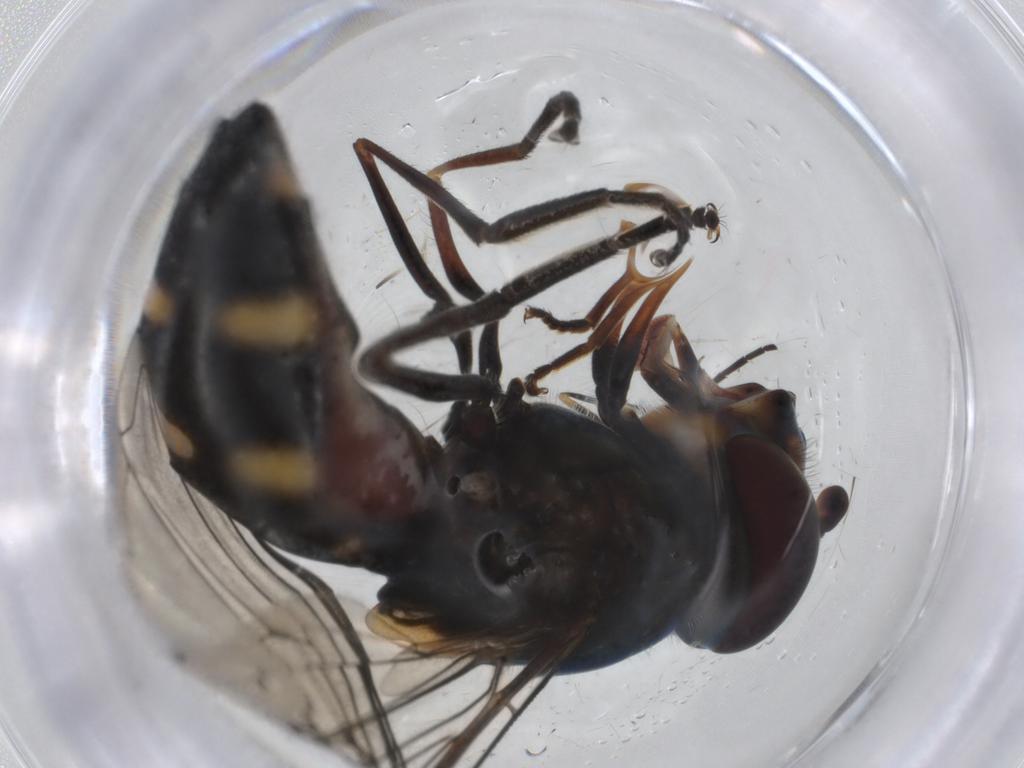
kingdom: Animalia
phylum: Arthropoda
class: Insecta
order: Diptera
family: Syrphidae
